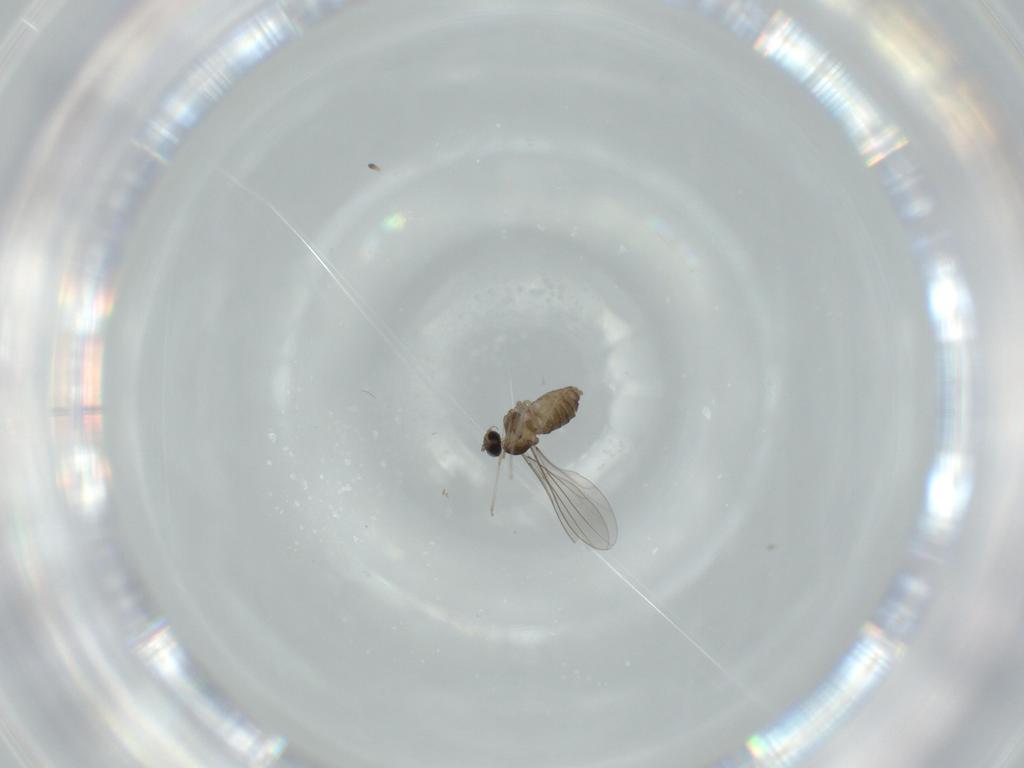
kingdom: Animalia
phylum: Arthropoda
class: Insecta
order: Diptera
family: Cecidomyiidae
